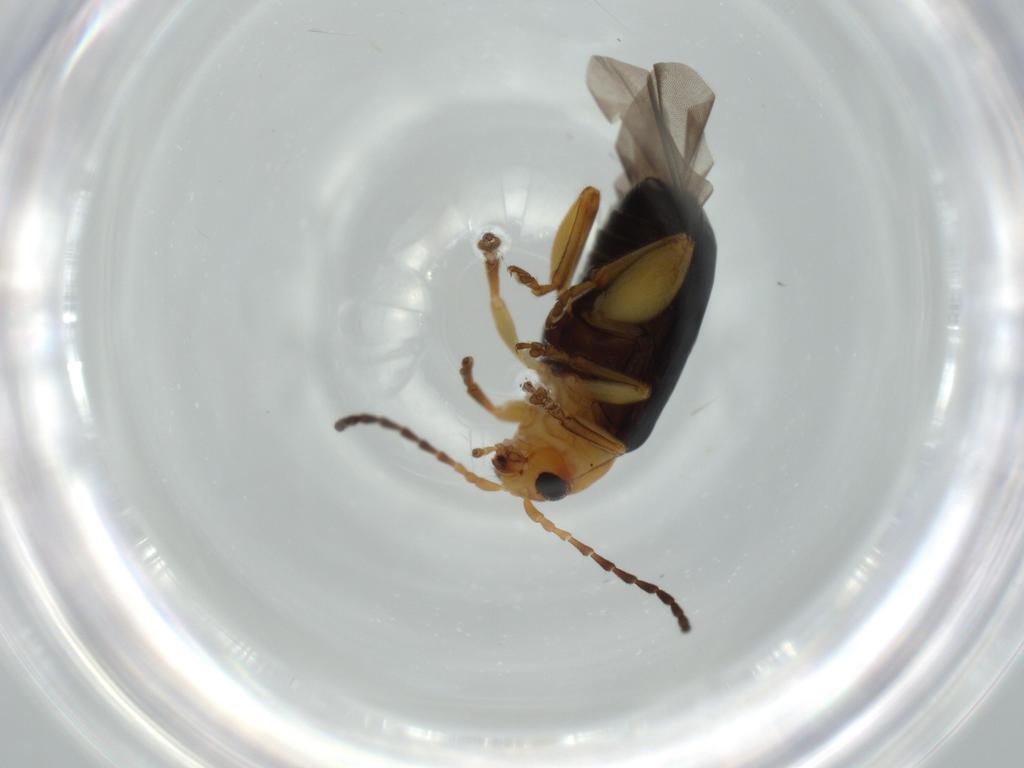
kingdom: Animalia
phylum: Arthropoda
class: Insecta
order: Coleoptera
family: Chrysomelidae
